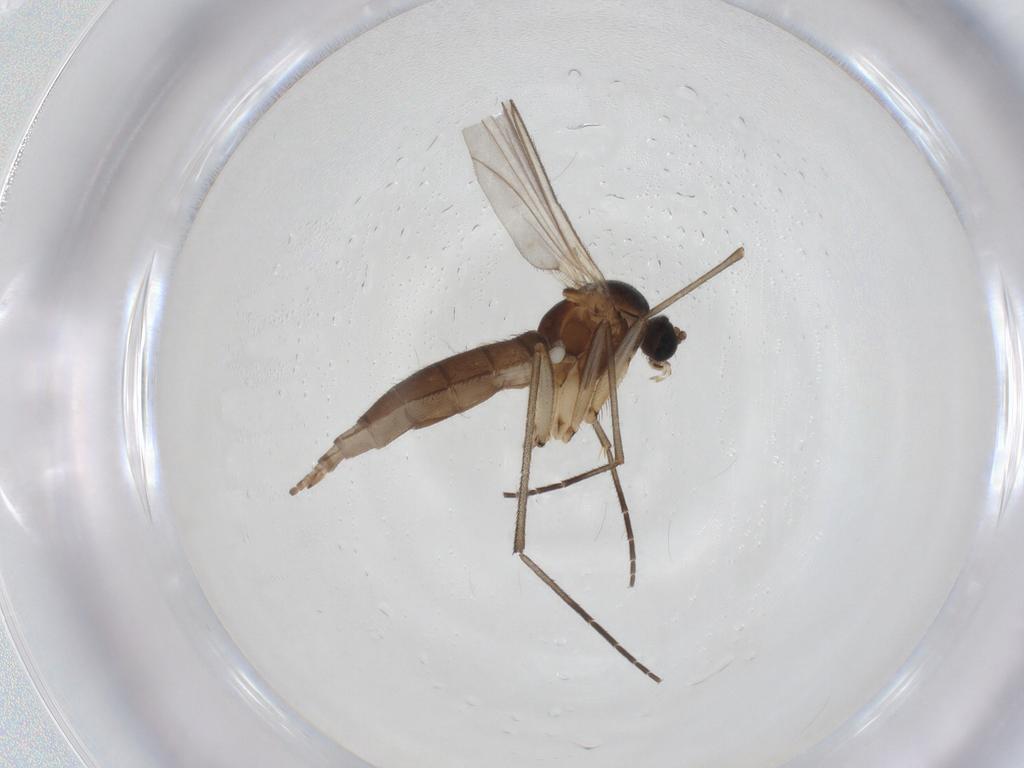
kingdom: Animalia
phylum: Arthropoda
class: Insecta
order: Diptera
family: Sciaridae
